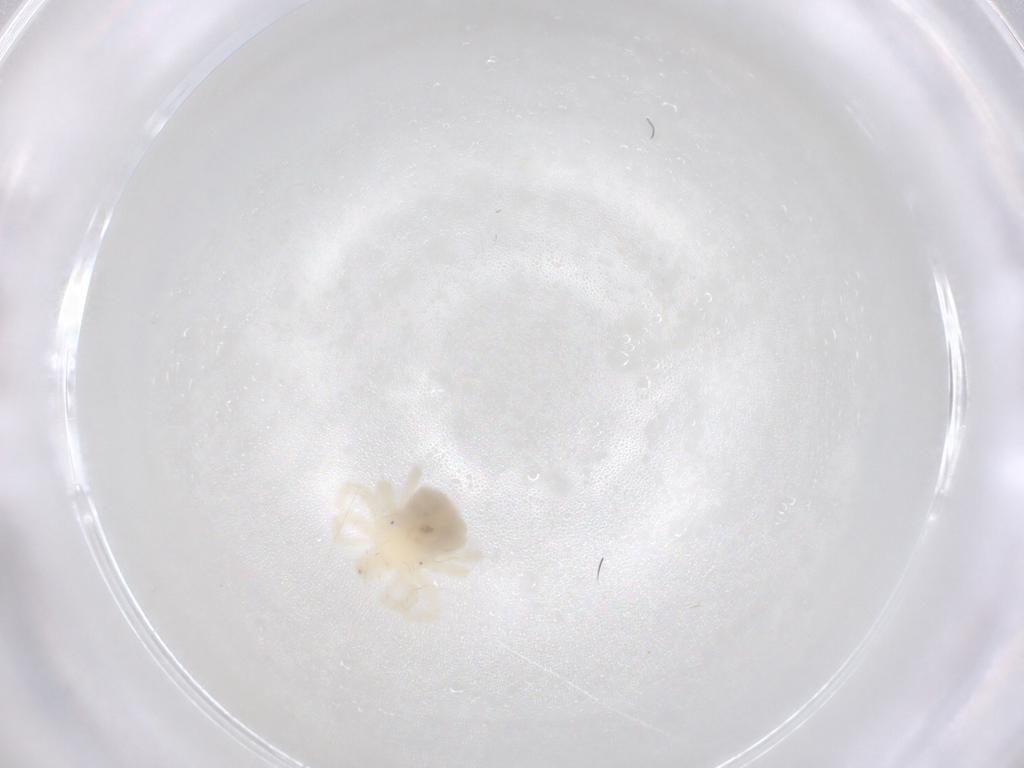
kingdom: Animalia
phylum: Arthropoda
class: Arachnida
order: Trombidiformes
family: Anystidae
